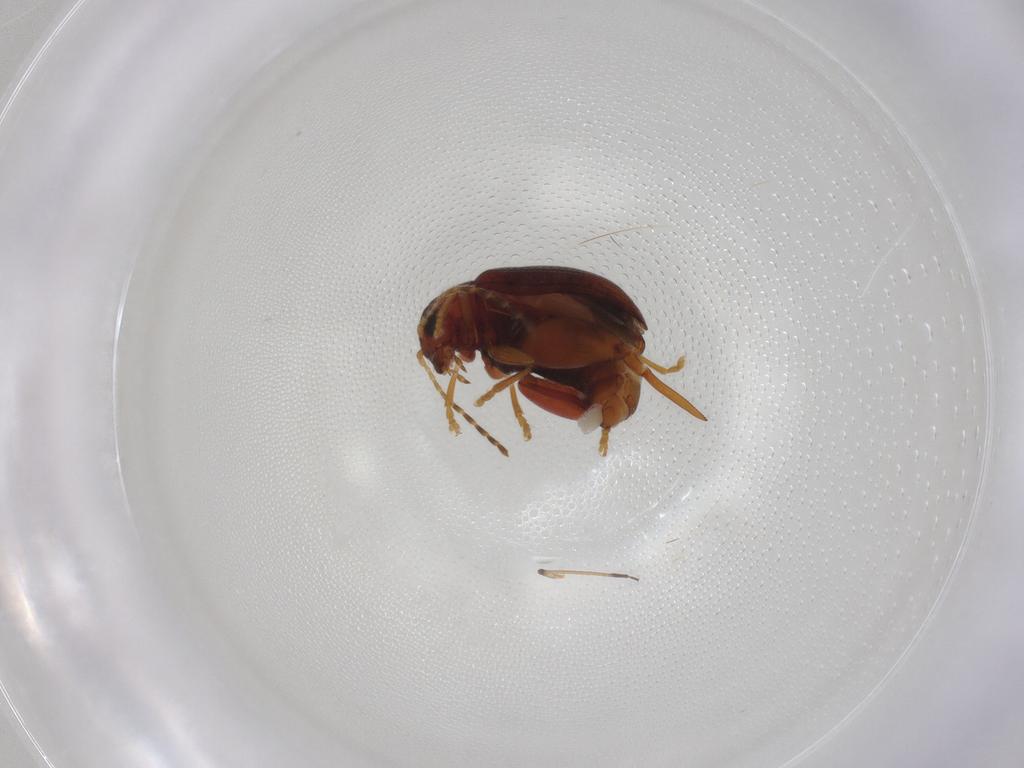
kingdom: Animalia
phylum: Arthropoda
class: Insecta
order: Coleoptera
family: Chrysomelidae
